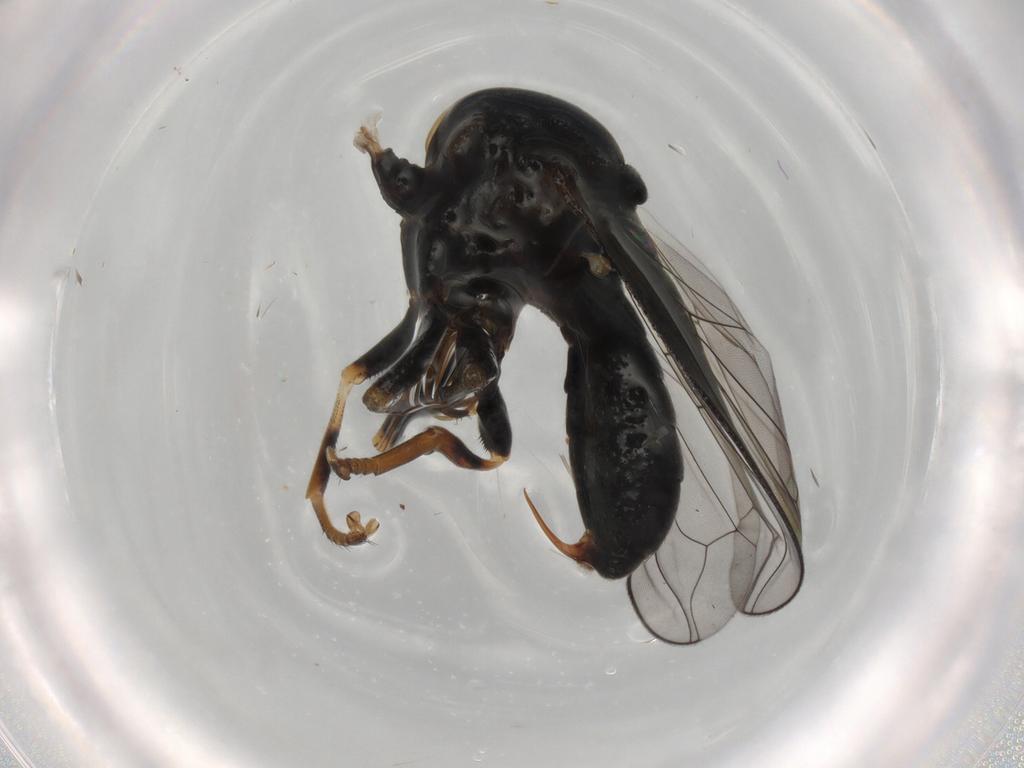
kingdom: Animalia
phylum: Arthropoda
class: Insecta
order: Diptera
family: Pipunculidae
